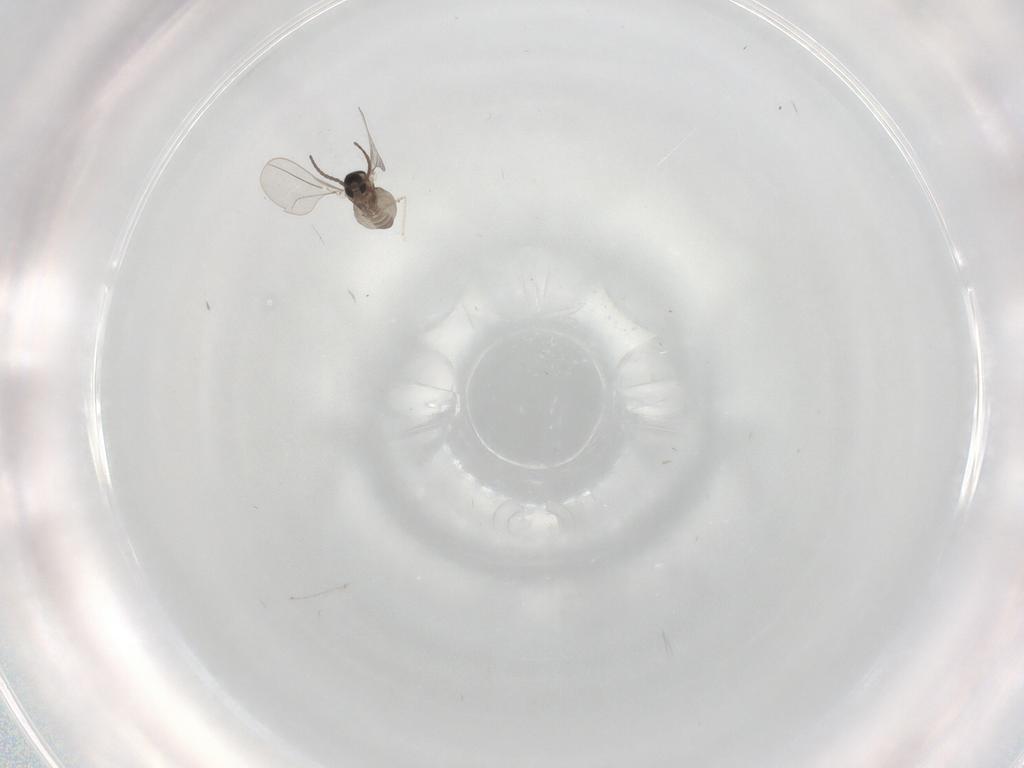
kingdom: Animalia
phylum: Arthropoda
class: Insecta
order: Diptera
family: Cecidomyiidae
